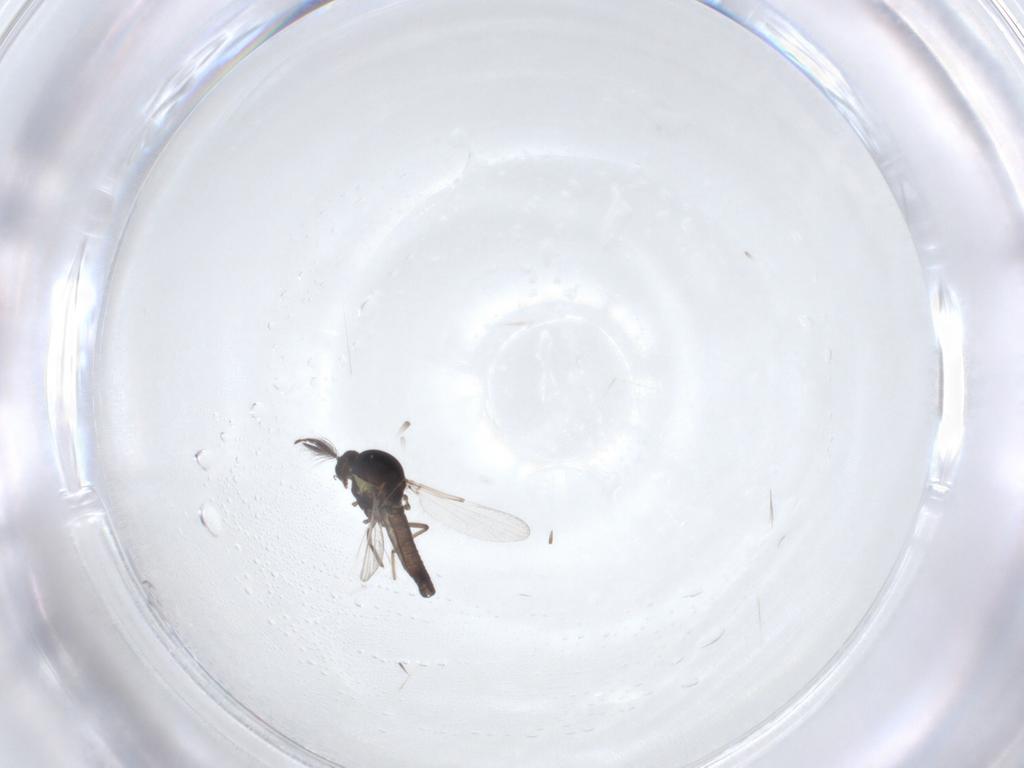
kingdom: Animalia
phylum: Arthropoda
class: Insecta
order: Diptera
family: Ceratopogonidae
